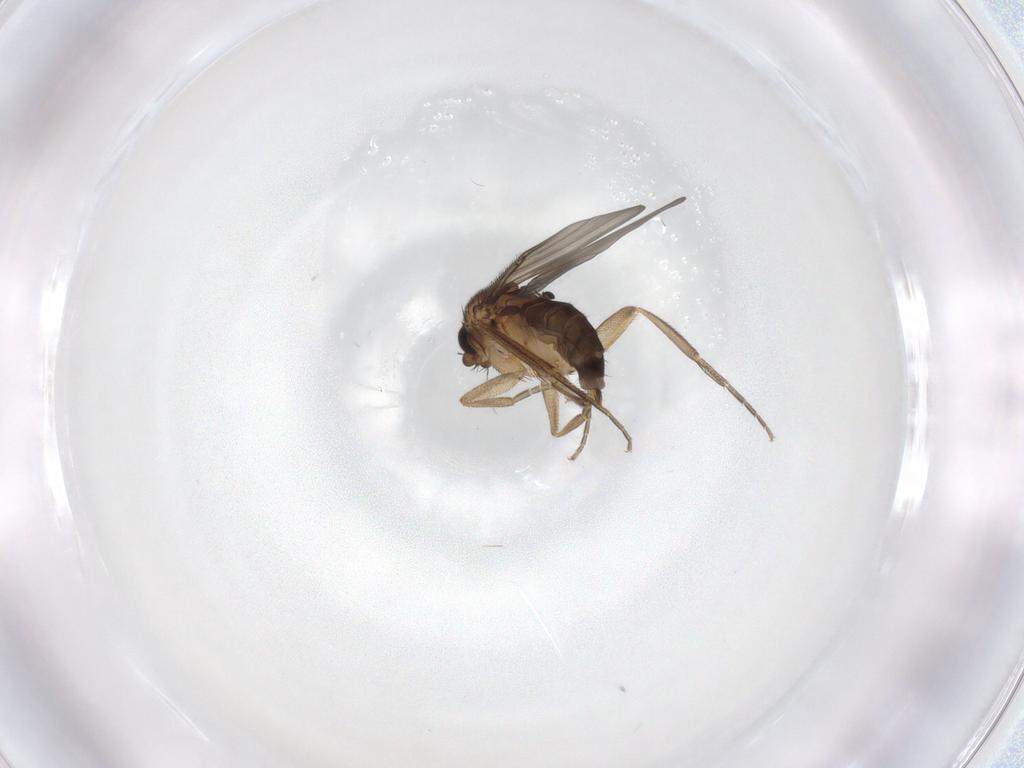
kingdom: Animalia
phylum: Arthropoda
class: Insecta
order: Diptera
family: Phoridae
